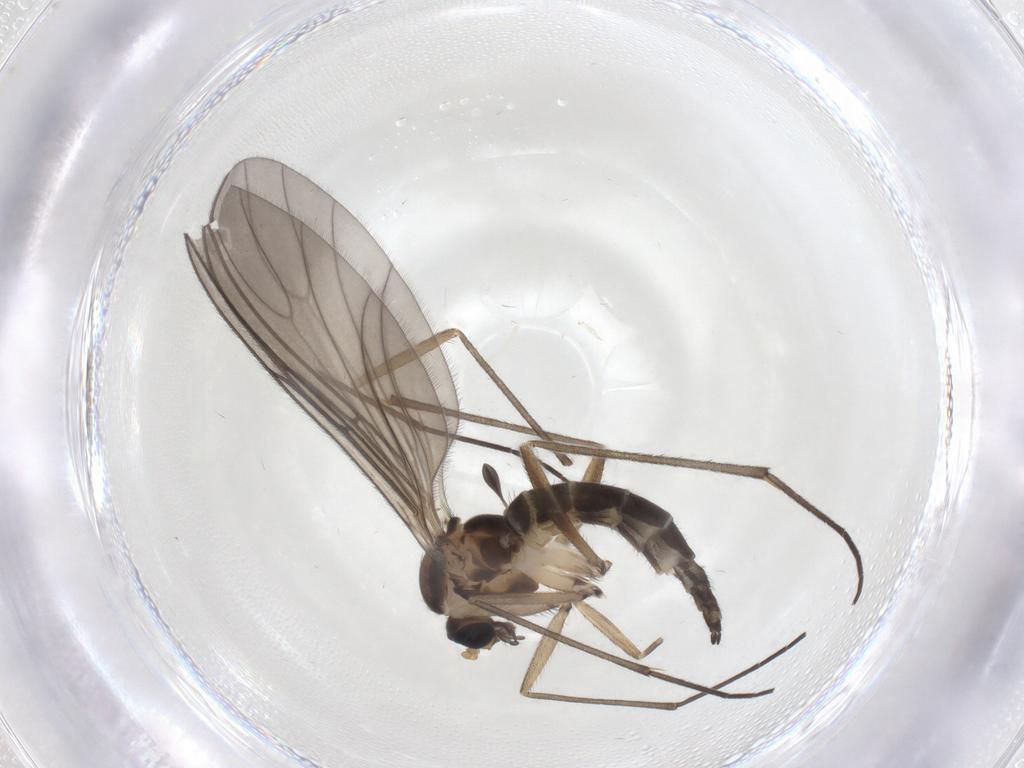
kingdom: Animalia
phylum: Arthropoda
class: Insecta
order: Diptera
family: Sciaridae
